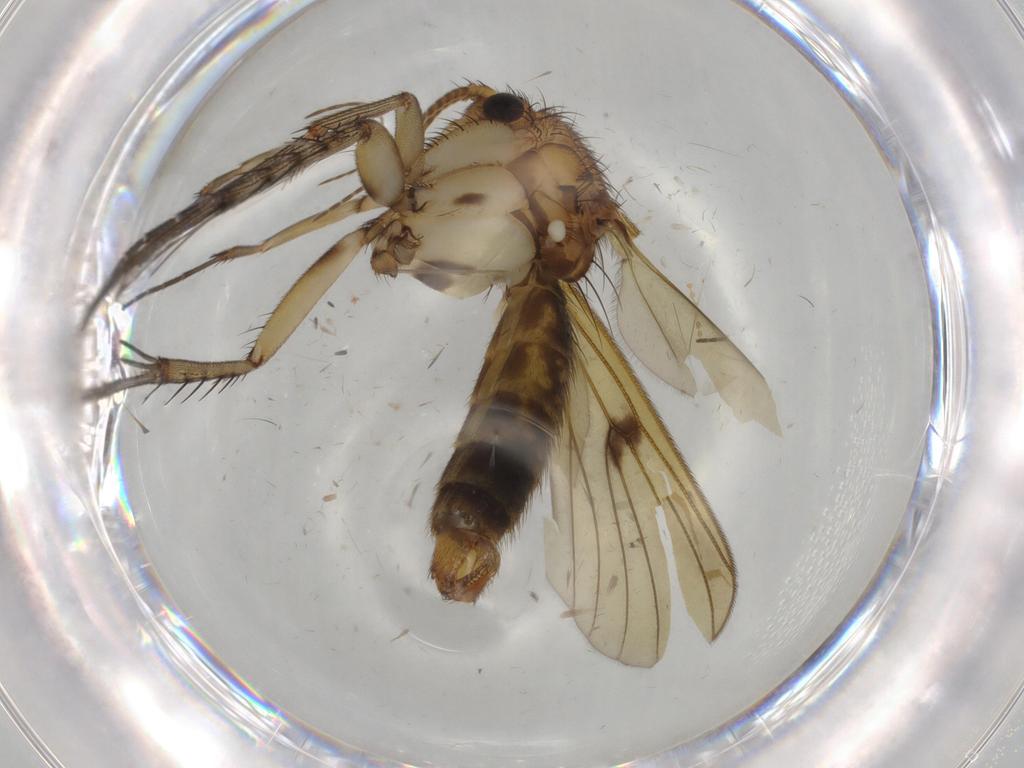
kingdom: Animalia
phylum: Arthropoda
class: Insecta
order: Diptera
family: Cecidomyiidae
